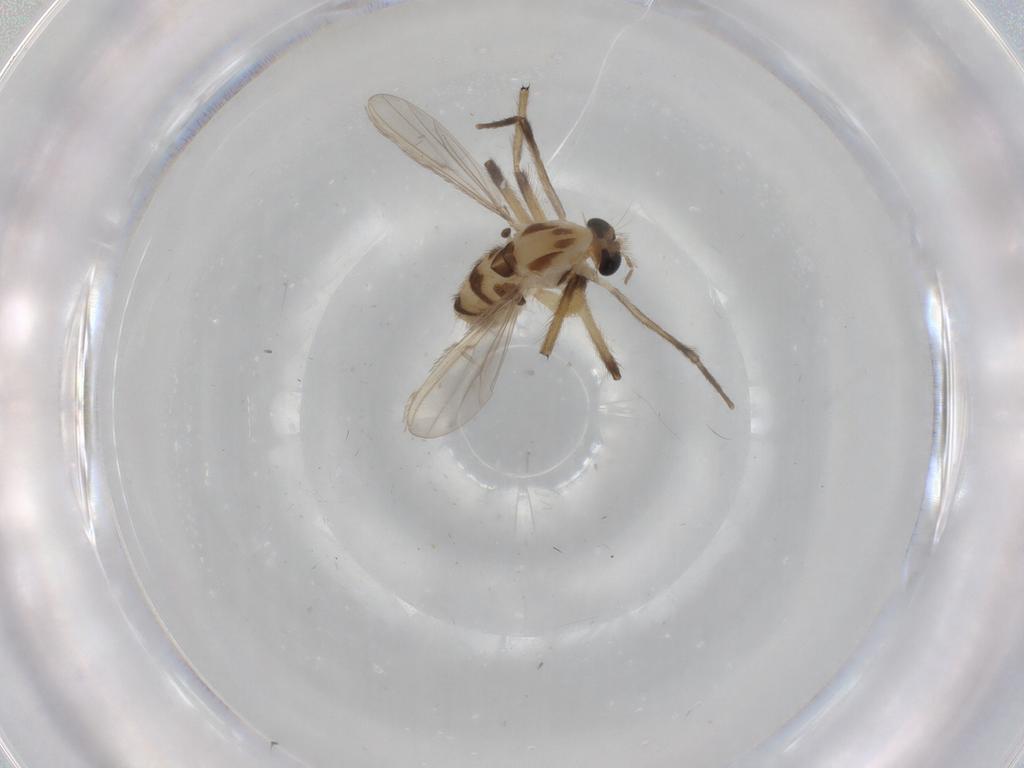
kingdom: Animalia
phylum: Arthropoda
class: Insecta
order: Diptera
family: Chironomidae
